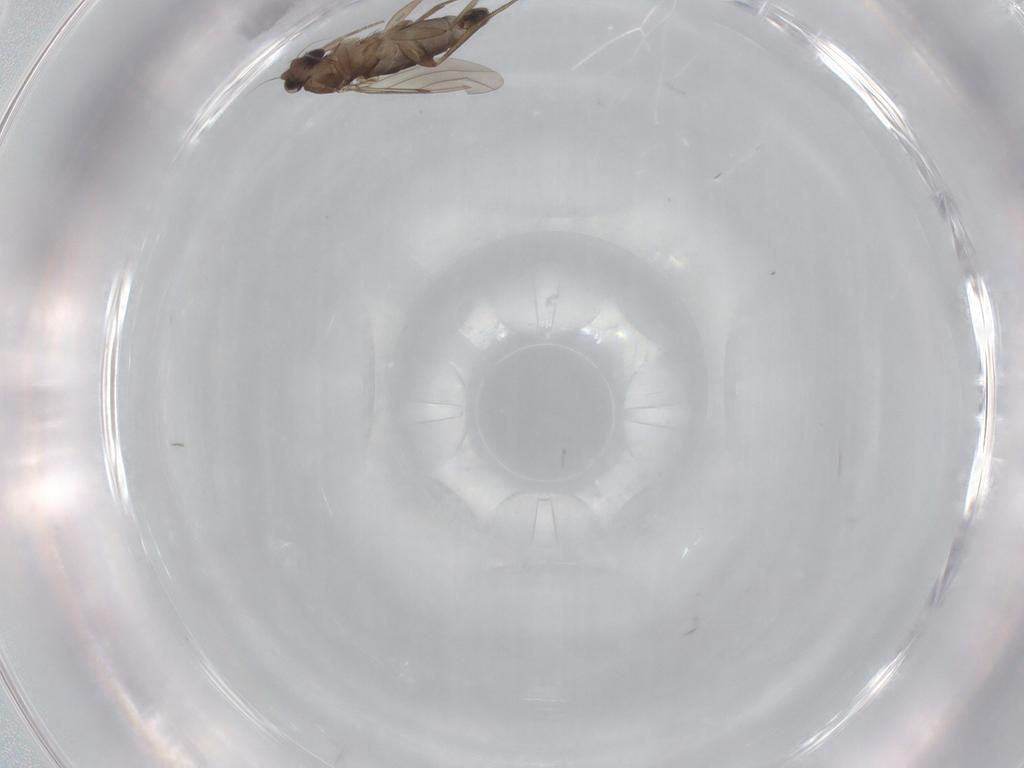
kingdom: Animalia
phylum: Arthropoda
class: Insecta
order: Diptera
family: Phoridae
